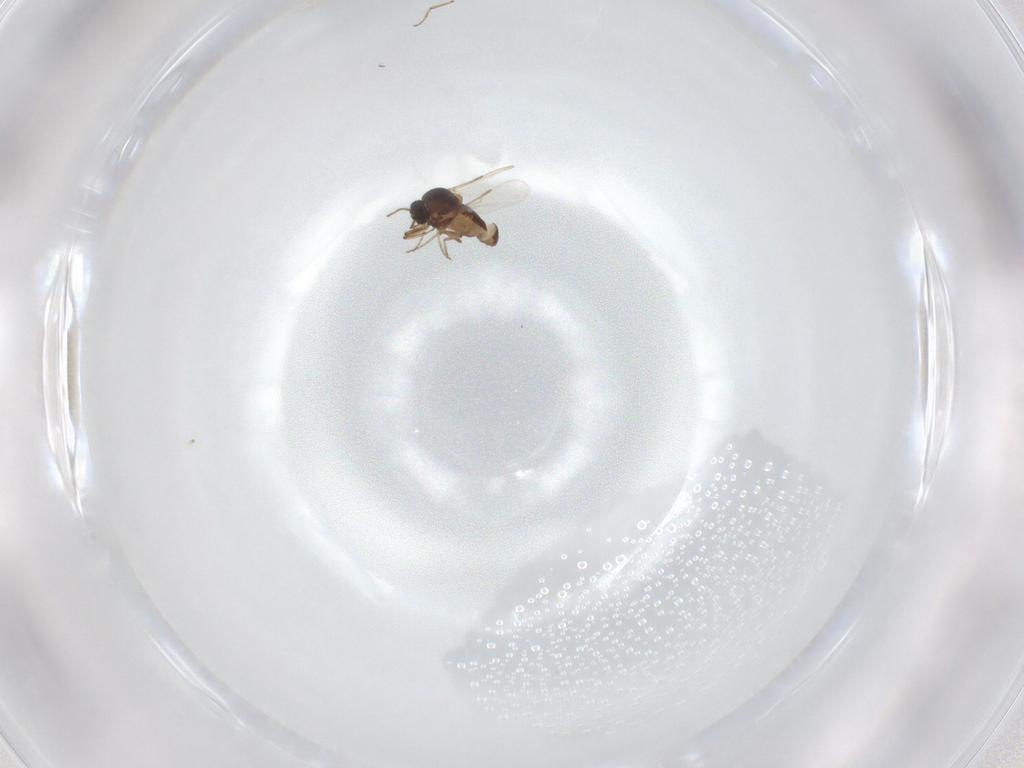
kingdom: Animalia
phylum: Arthropoda
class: Insecta
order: Diptera
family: Ceratopogonidae
